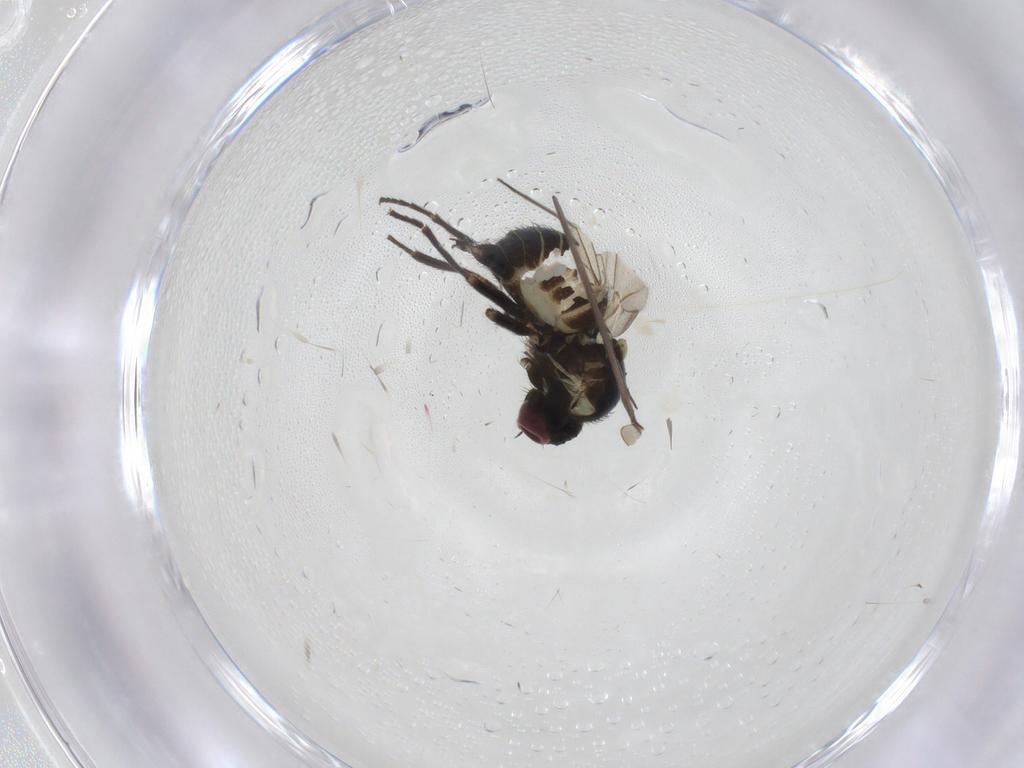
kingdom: Animalia
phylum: Arthropoda
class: Insecta
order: Diptera
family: Agromyzidae
